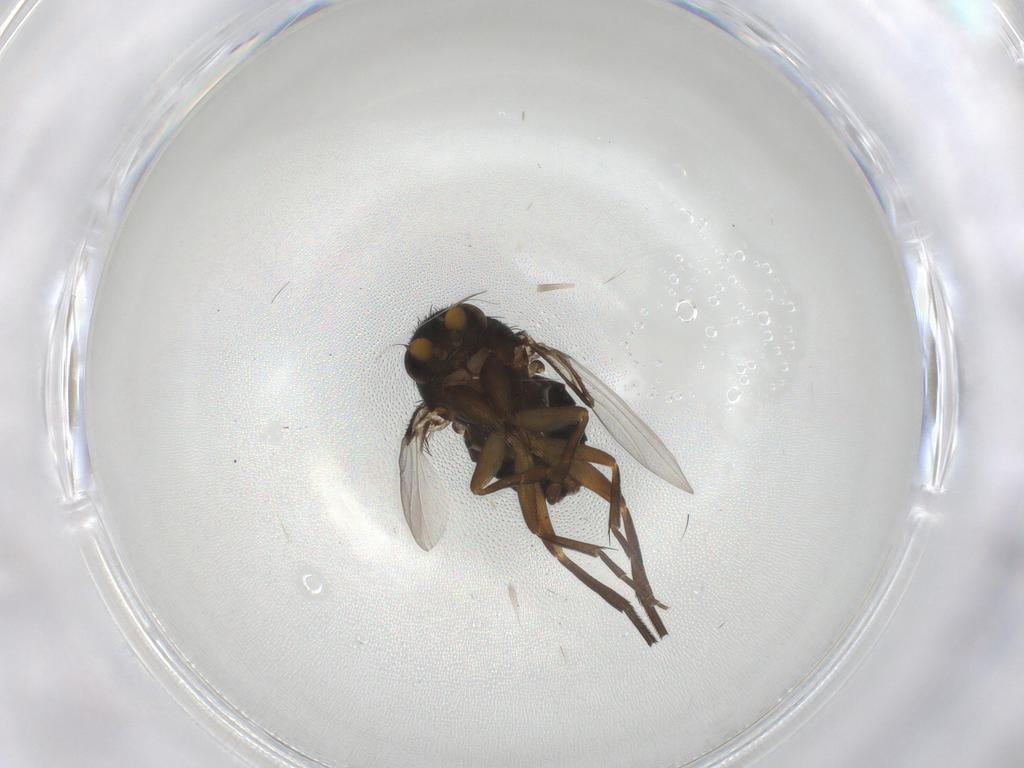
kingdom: Animalia
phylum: Arthropoda
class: Insecta
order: Diptera
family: Phoridae
